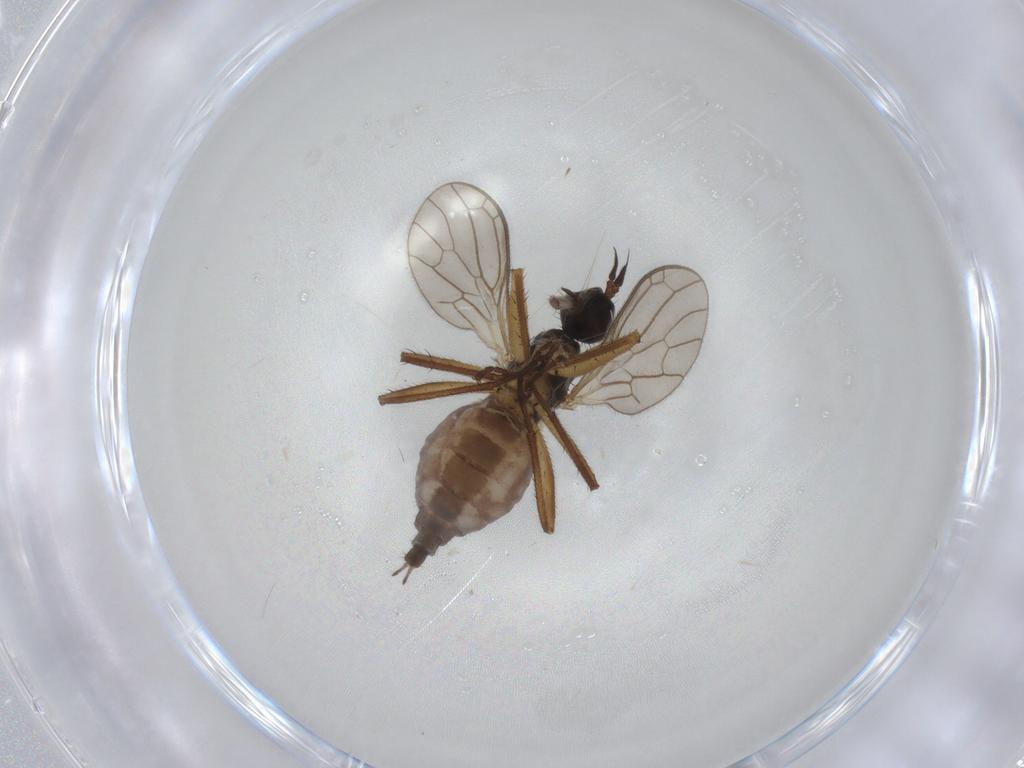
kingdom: Animalia
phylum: Arthropoda
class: Insecta
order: Diptera
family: Empididae
